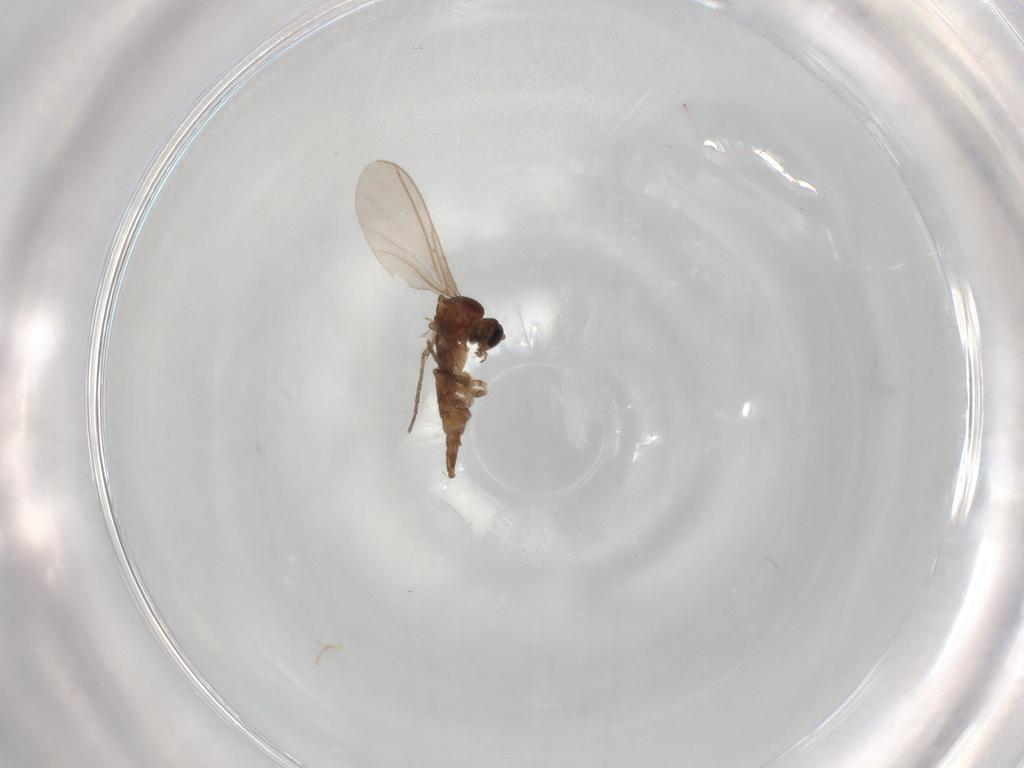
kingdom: Animalia
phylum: Arthropoda
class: Insecta
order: Diptera
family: Sciaridae
